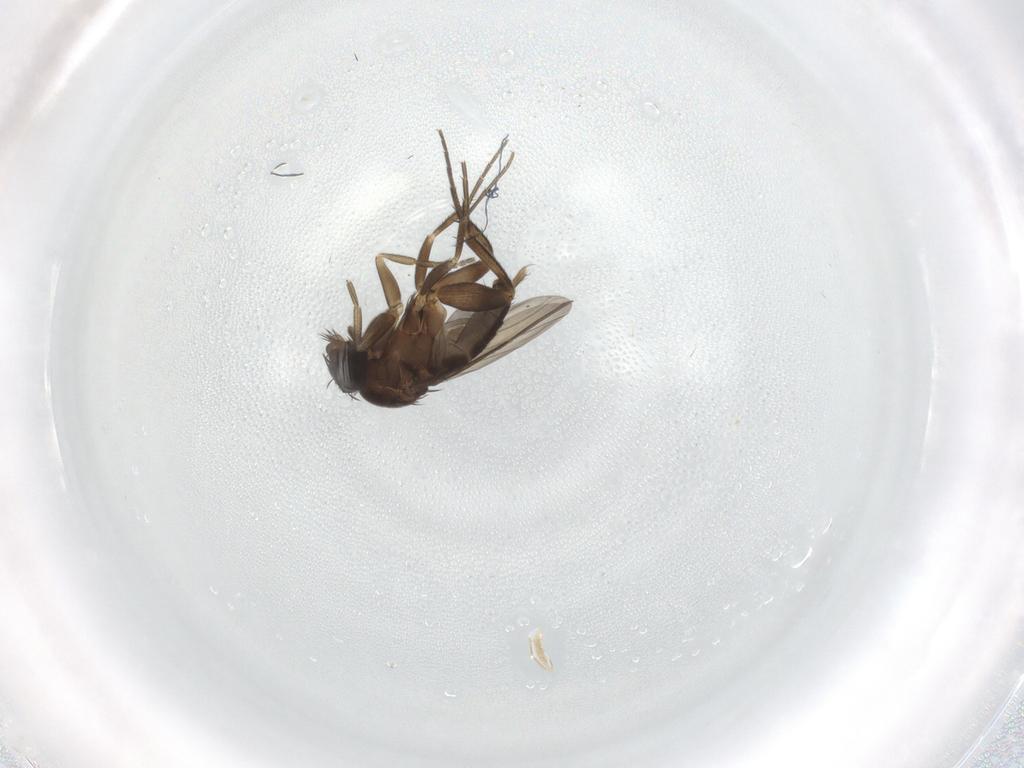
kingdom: Animalia
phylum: Arthropoda
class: Insecta
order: Diptera
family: Phoridae
